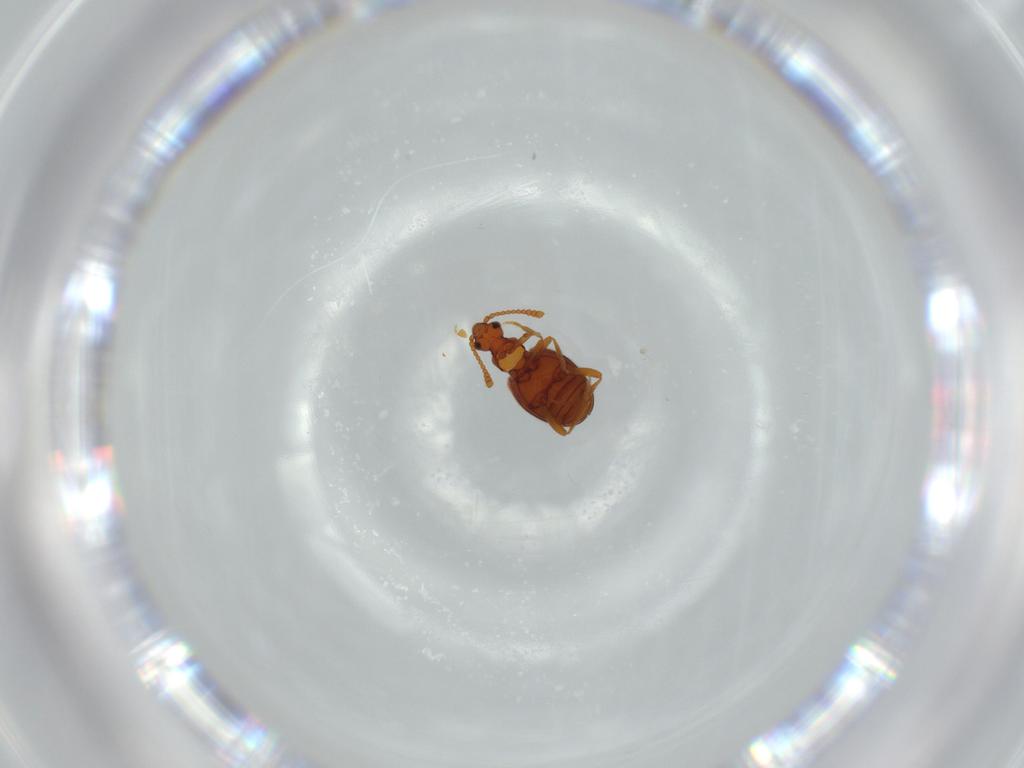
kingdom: Animalia
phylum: Arthropoda
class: Insecta
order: Coleoptera
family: Aderidae
